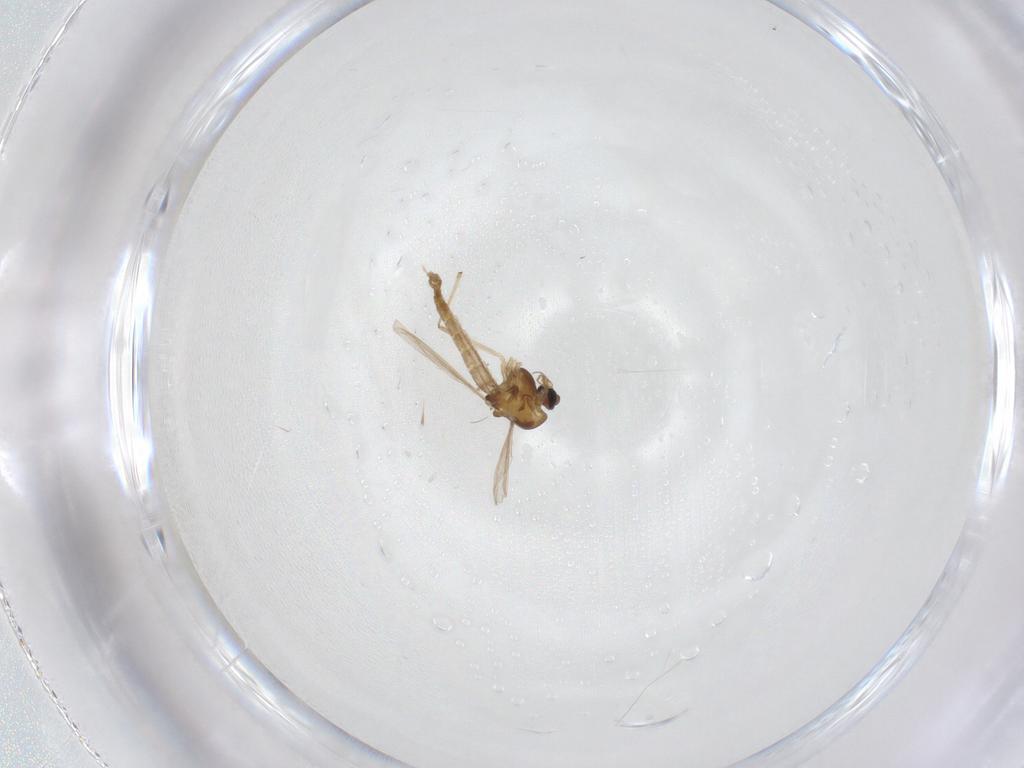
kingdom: Animalia
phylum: Arthropoda
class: Insecta
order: Diptera
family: Chironomidae
